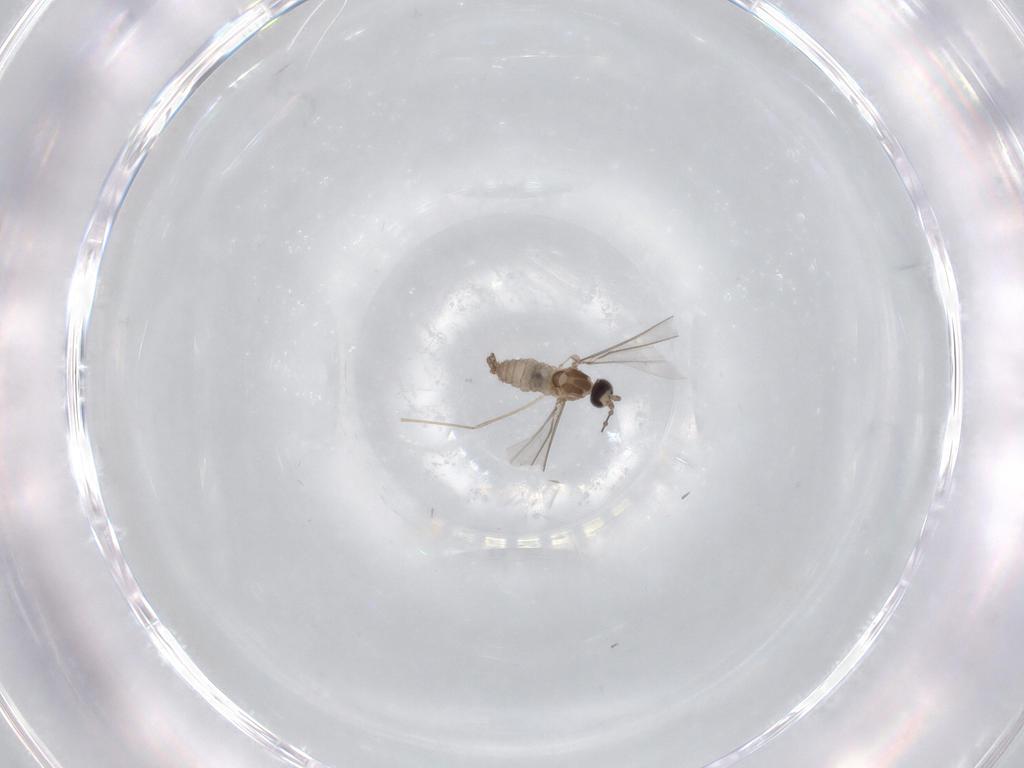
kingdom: Animalia
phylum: Arthropoda
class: Insecta
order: Diptera
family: Cecidomyiidae
